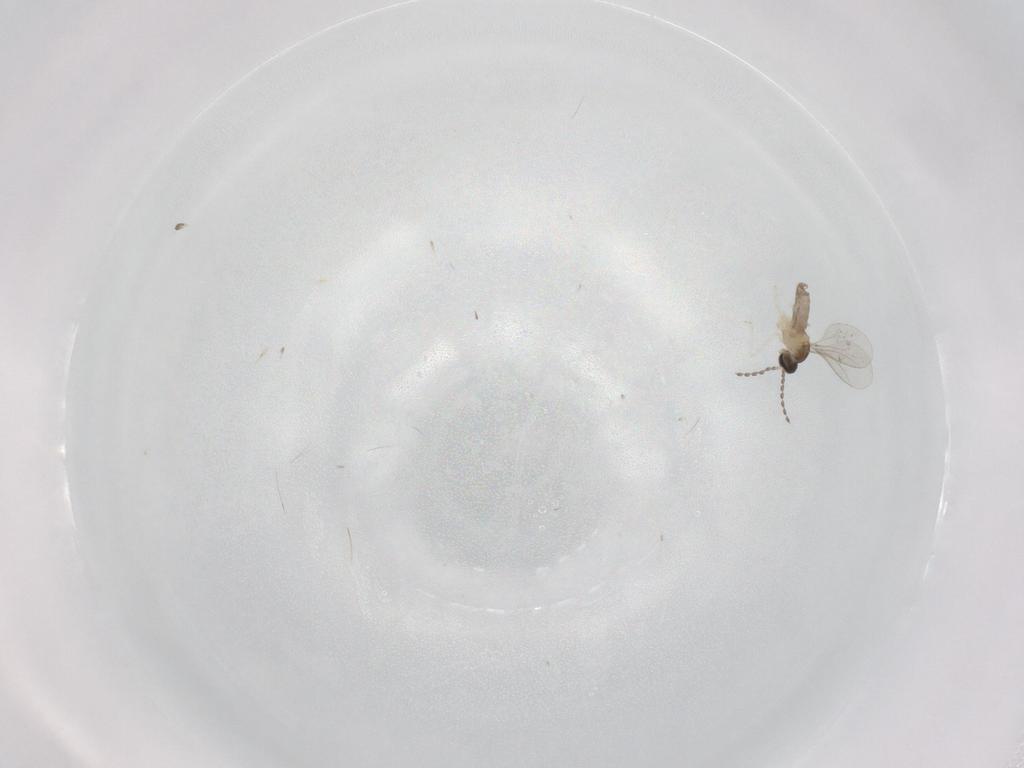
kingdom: Animalia
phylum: Arthropoda
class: Insecta
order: Diptera
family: Cecidomyiidae
